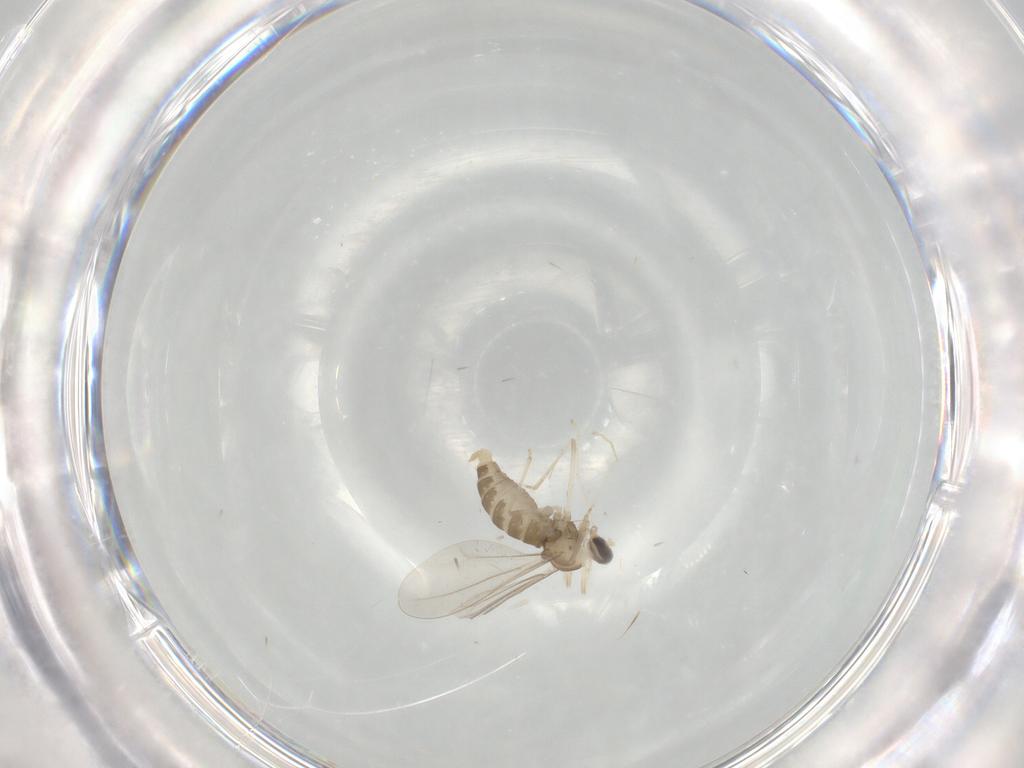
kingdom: Animalia
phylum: Arthropoda
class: Insecta
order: Diptera
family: Cecidomyiidae
